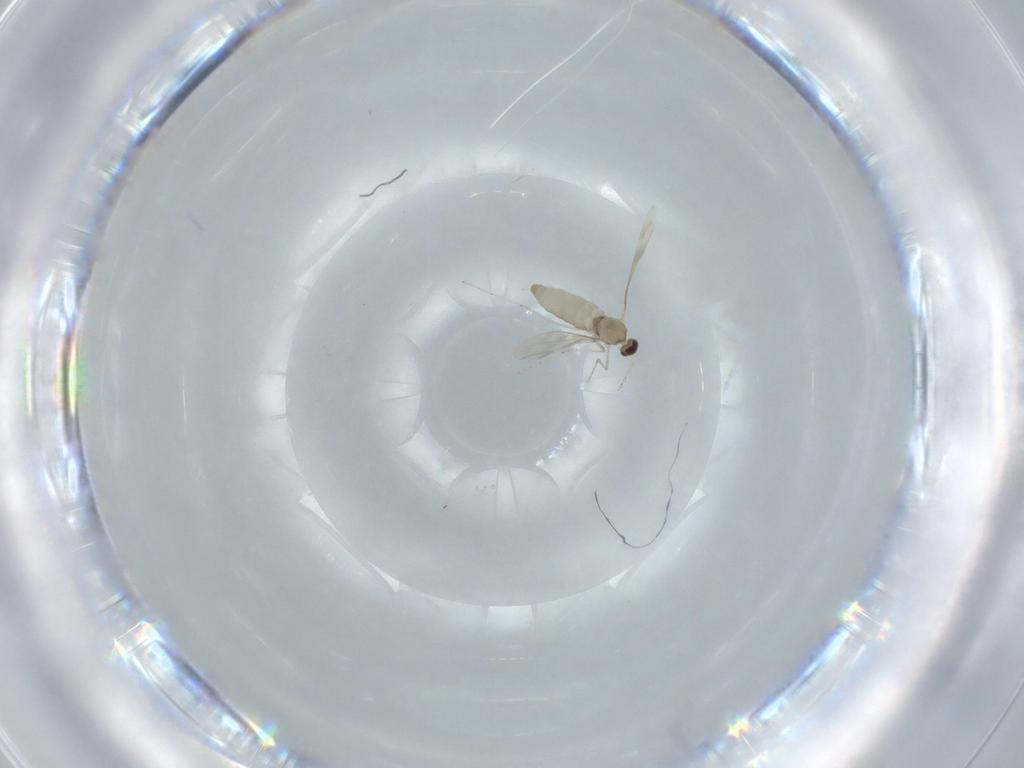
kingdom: Animalia
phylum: Arthropoda
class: Insecta
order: Diptera
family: Cecidomyiidae
